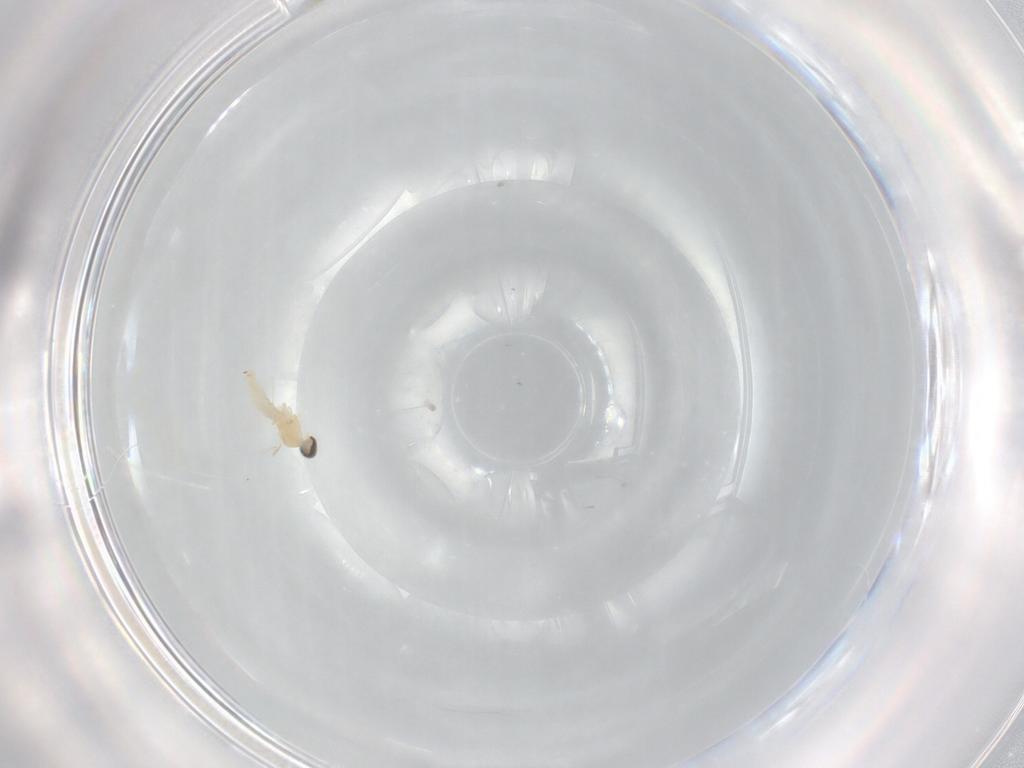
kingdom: Animalia
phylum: Arthropoda
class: Insecta
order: Diptera
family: Cecidomyiidae
